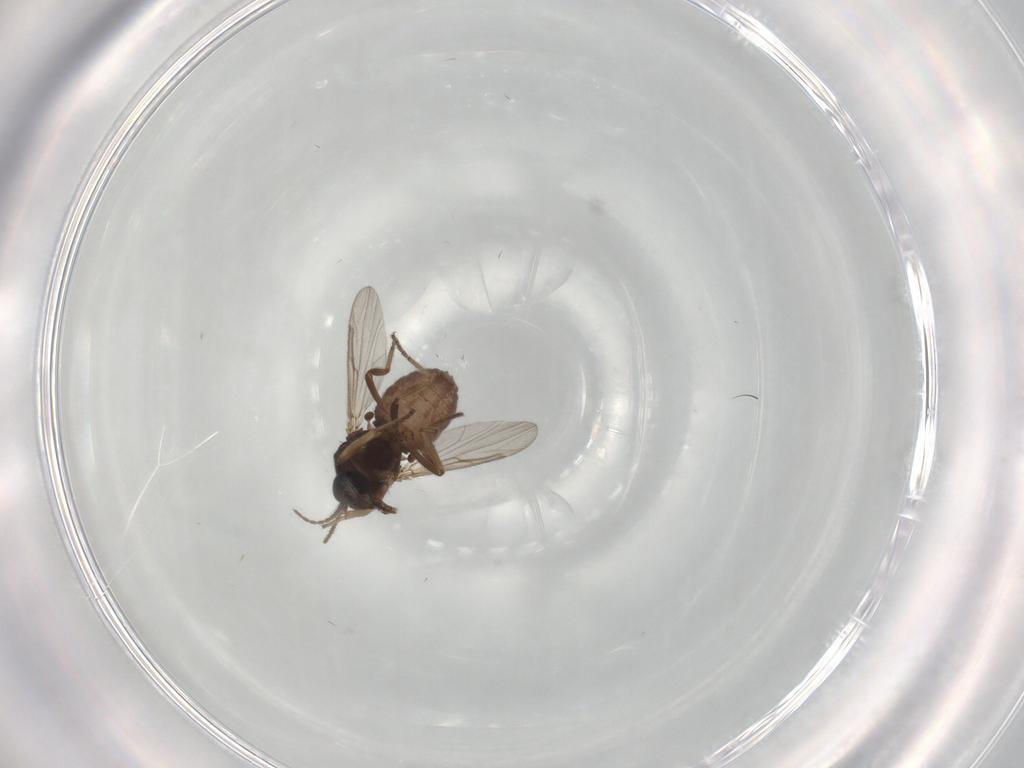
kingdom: Animalia
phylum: Arthropoda
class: Insecta
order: Diptera
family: Ceratopogonidae
